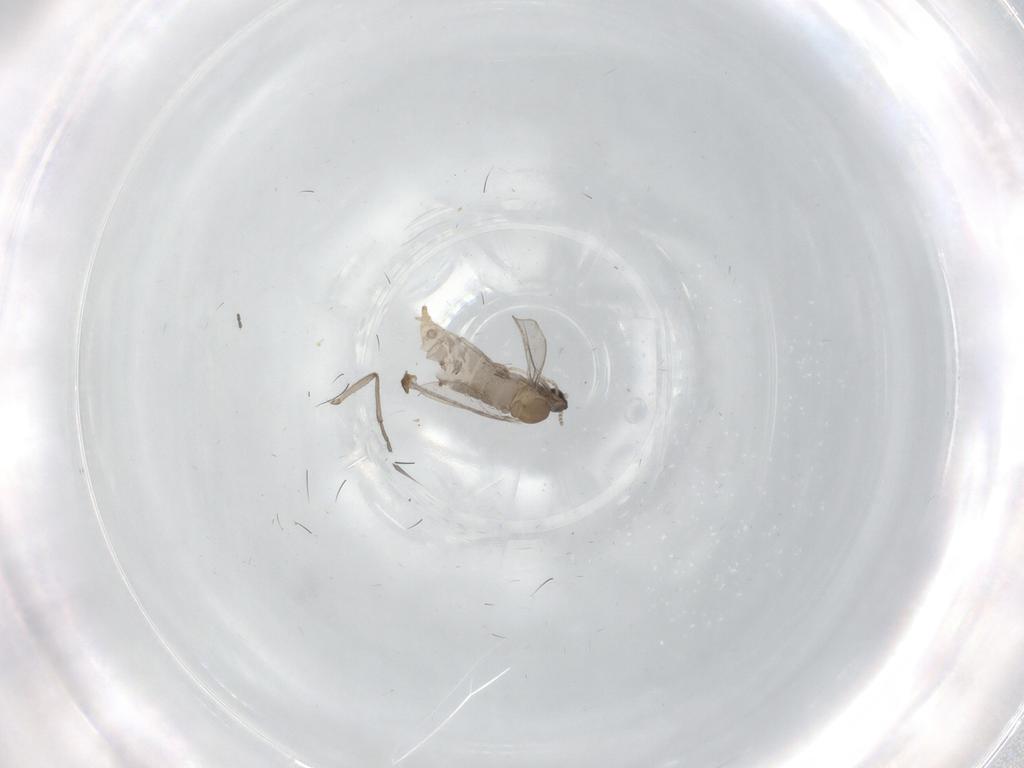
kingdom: Animalia
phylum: Arthropoda
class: Insecta
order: Diptera
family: Cecidomyiidae
